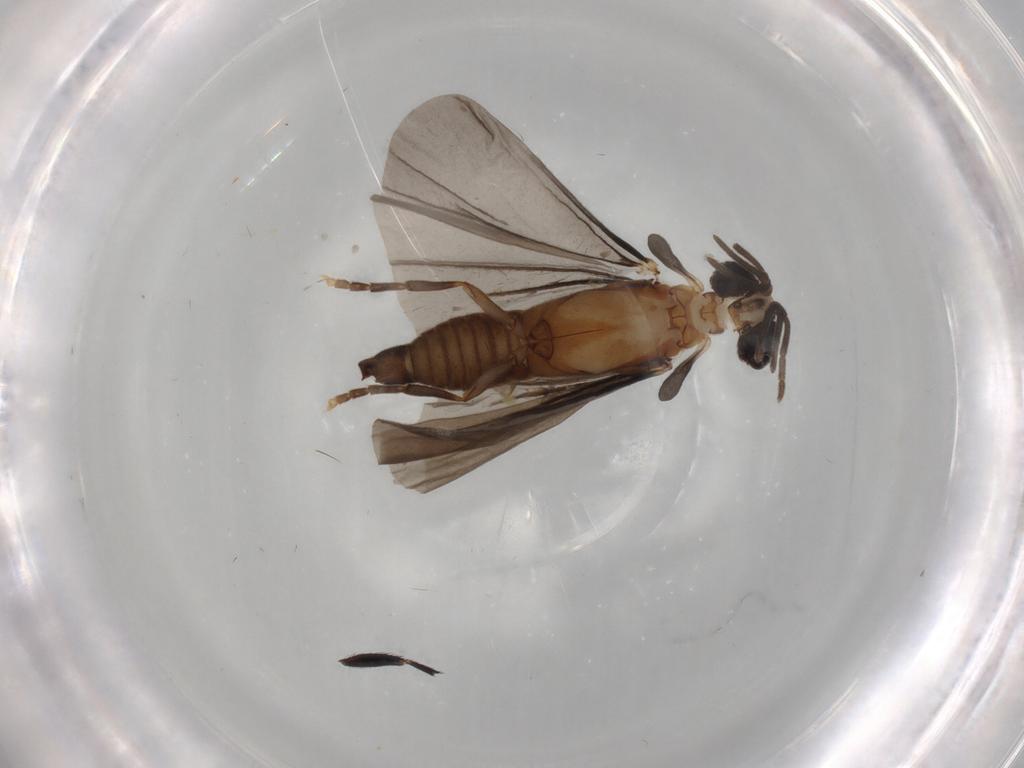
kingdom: Animalia
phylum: Arthropoda
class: Insecta
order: Strepsiptera
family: Corioxenidae
